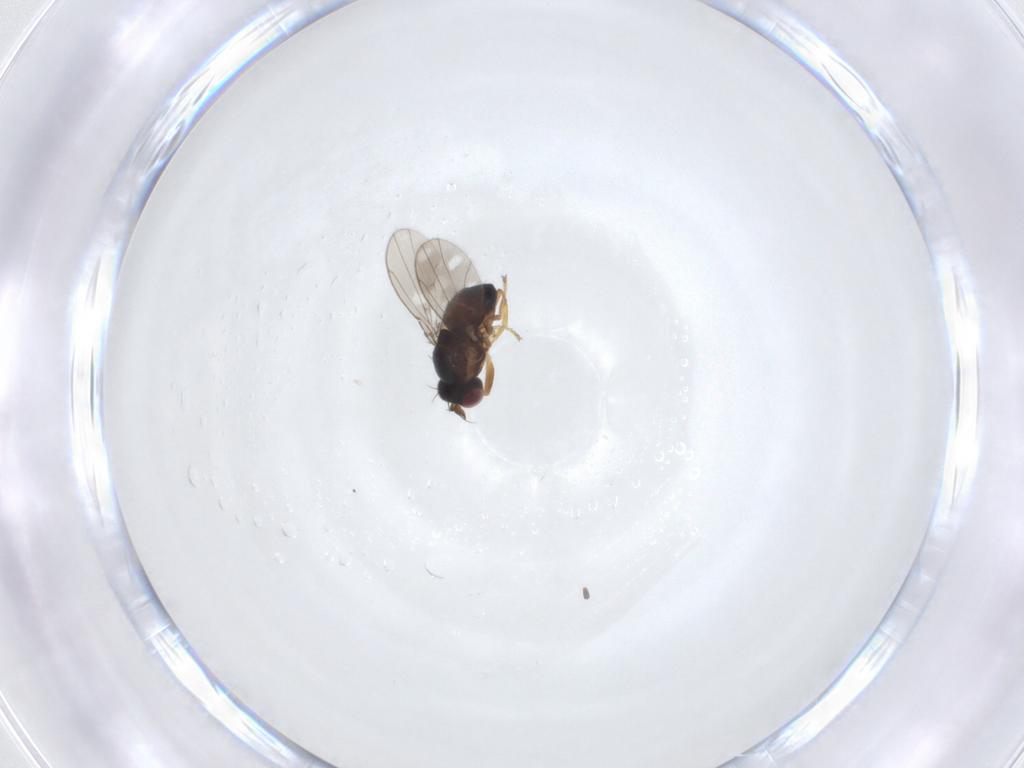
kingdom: Animalia
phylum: Arthropoda
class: Insecta
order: Diptera
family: Ephydridae
